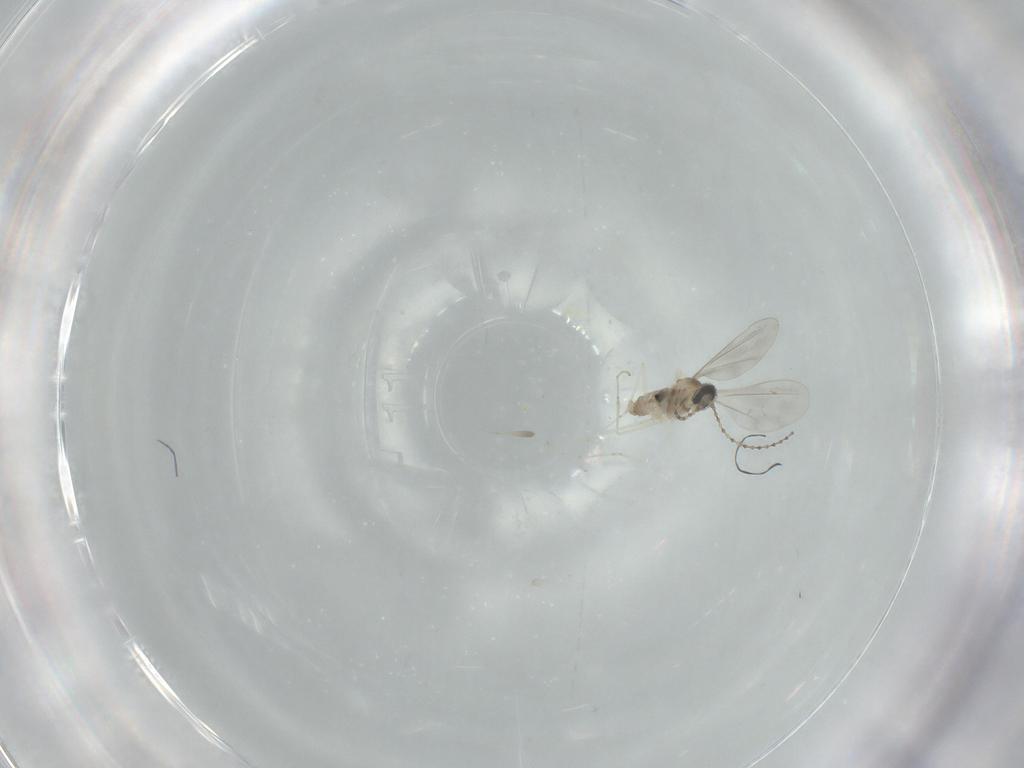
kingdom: Animalia
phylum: Arthropoda
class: Insecta
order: Diptera
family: Cecidomyiidae
